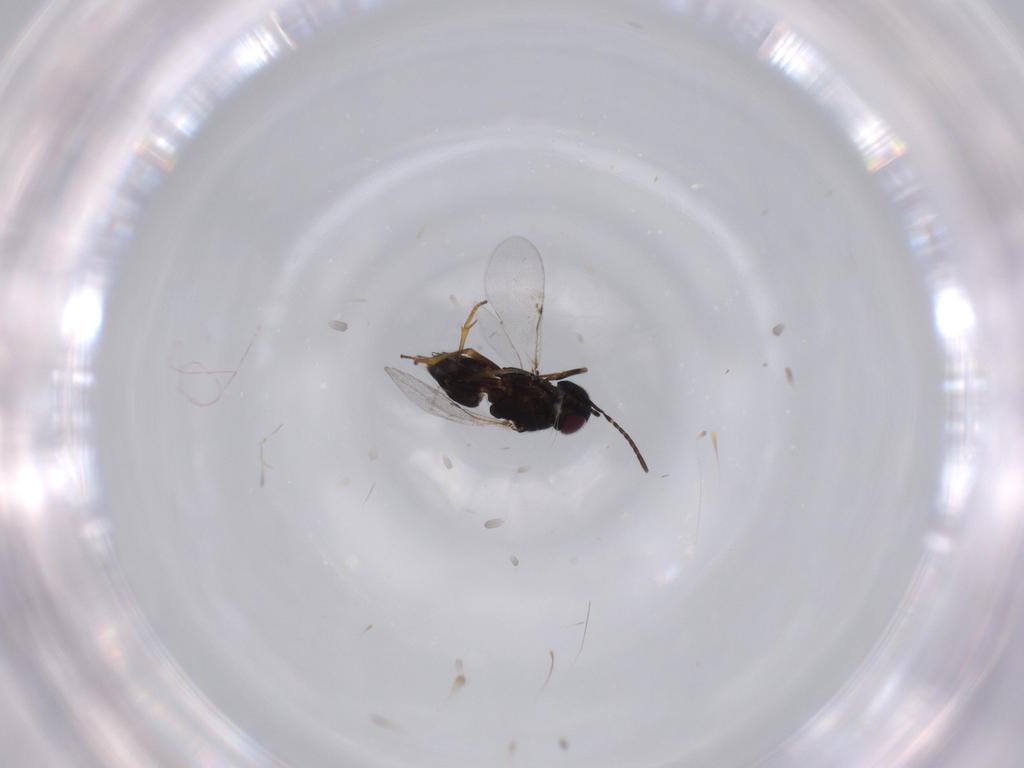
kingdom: Animalia
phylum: Arthropoda
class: Insecta
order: Hymenoptera
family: Encyrtidae
